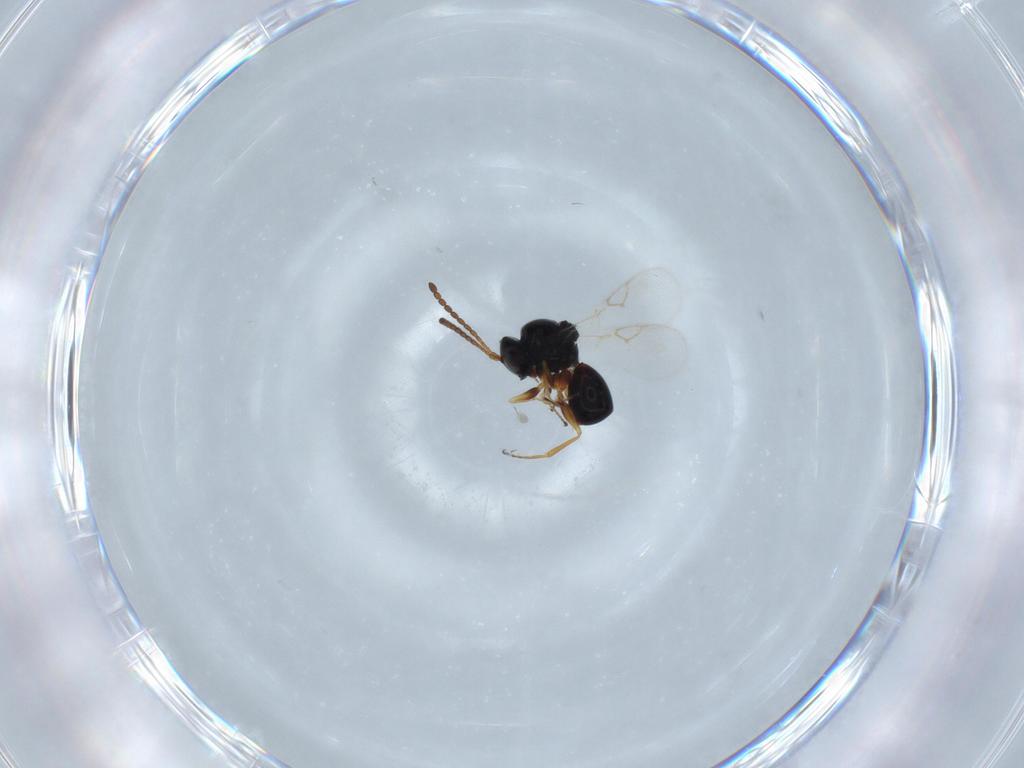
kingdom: Animalia
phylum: Arthropoda
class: Insecta
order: Hymenoptera
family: Figitidae
